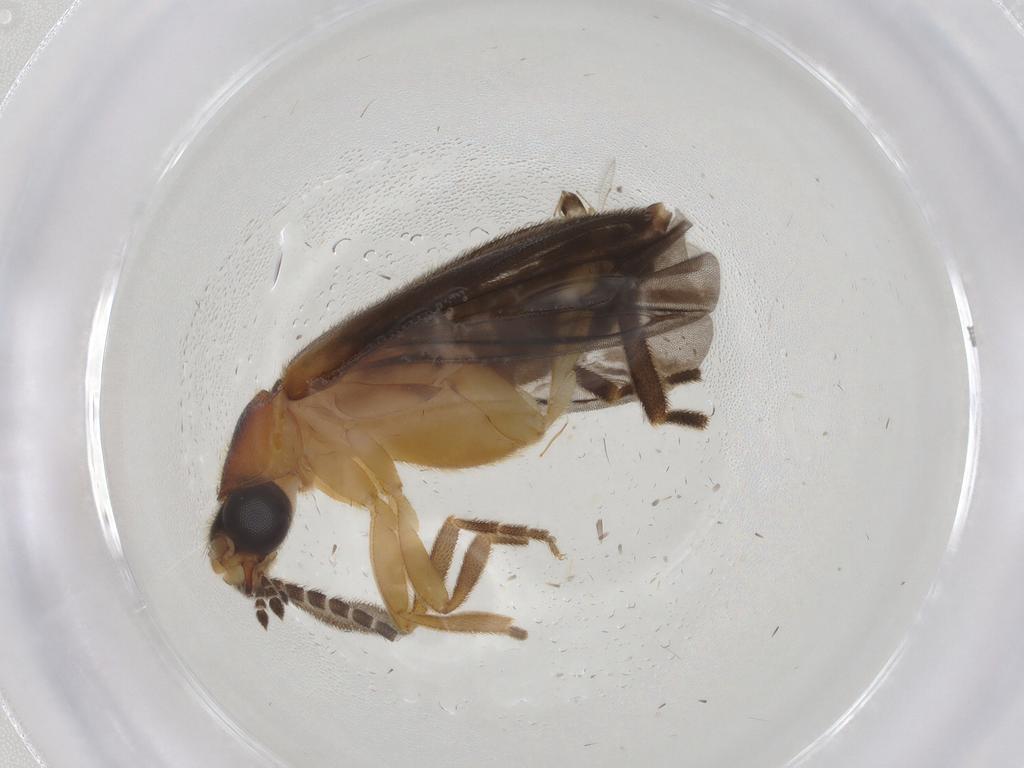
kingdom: Animalia
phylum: Arthropoda
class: Insecta
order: Coleoptera
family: Lampyridae
